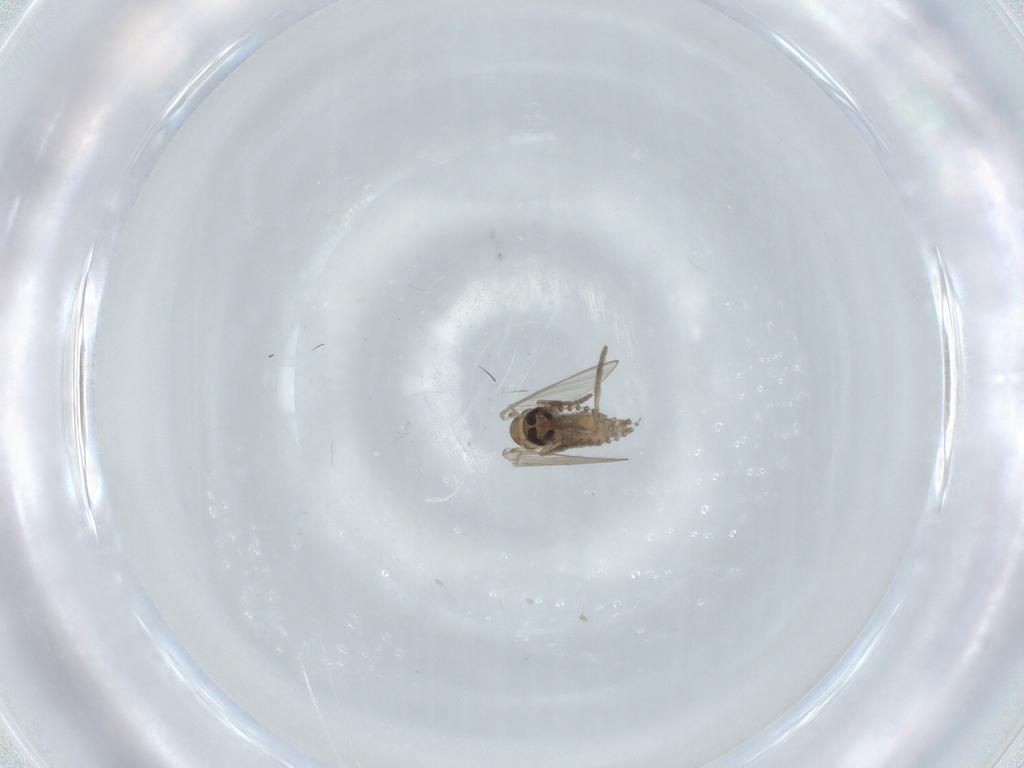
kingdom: Animalia
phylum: Arthropoda
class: Insecta
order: Diptera
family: Psychodidae
